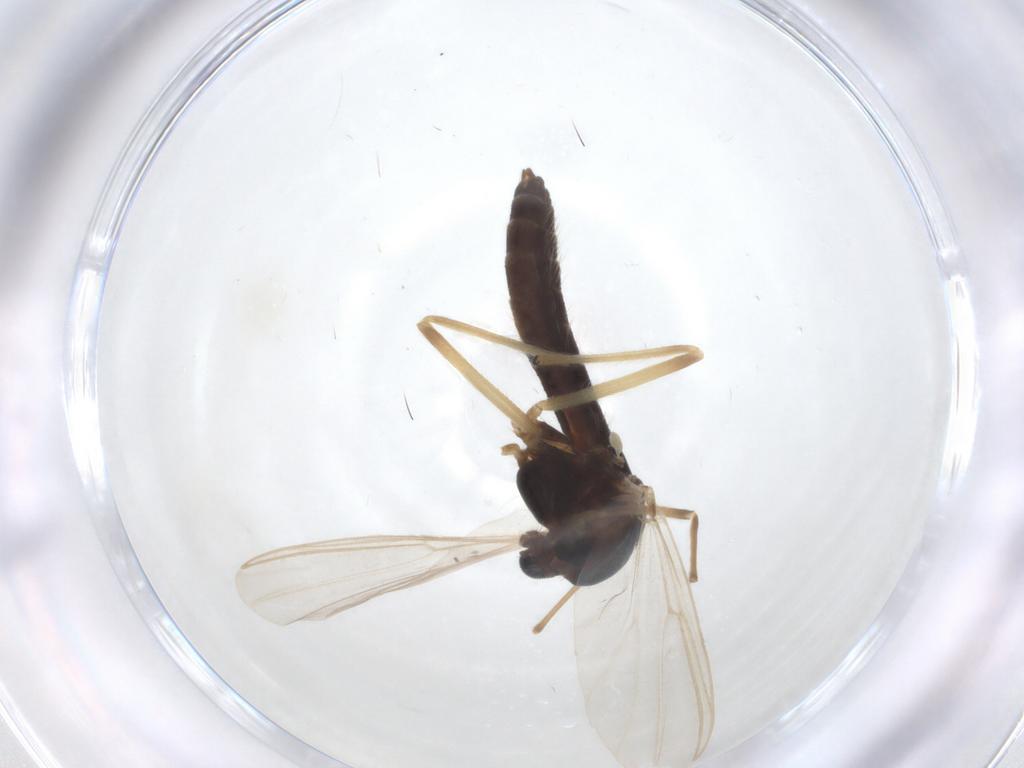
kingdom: Animalia
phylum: Arthropoda
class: Insecta
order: Diptera
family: Chironomidae
